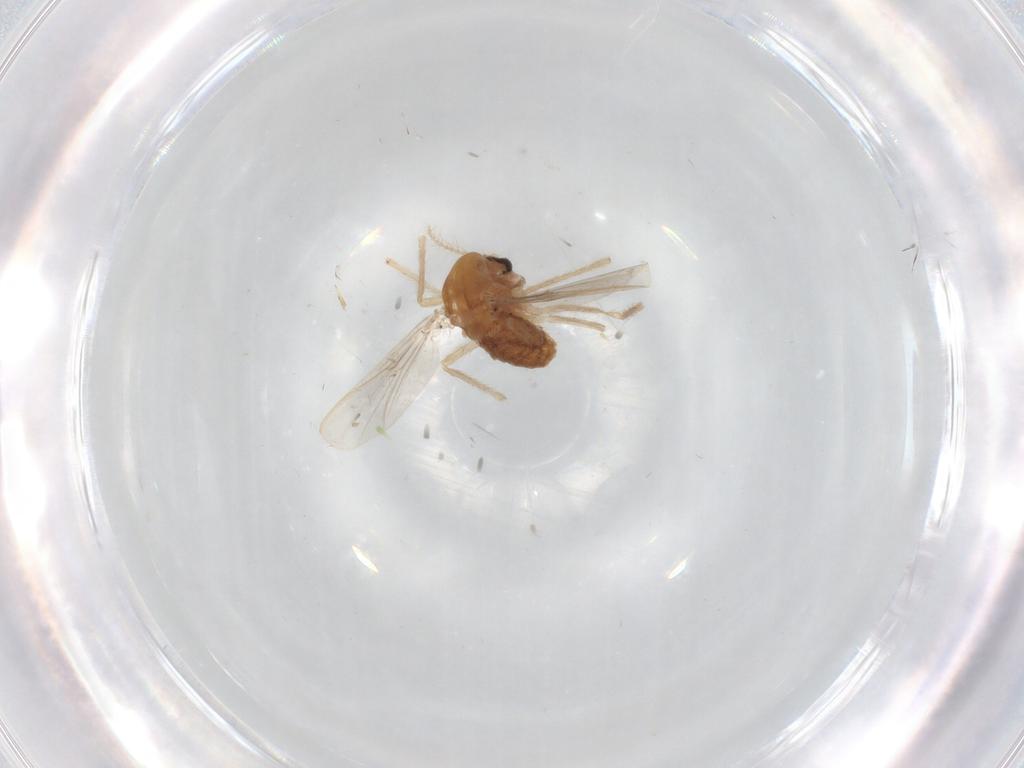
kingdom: Animalia
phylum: Arthropoda
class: Insecta
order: Diptera
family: Chironomidae
